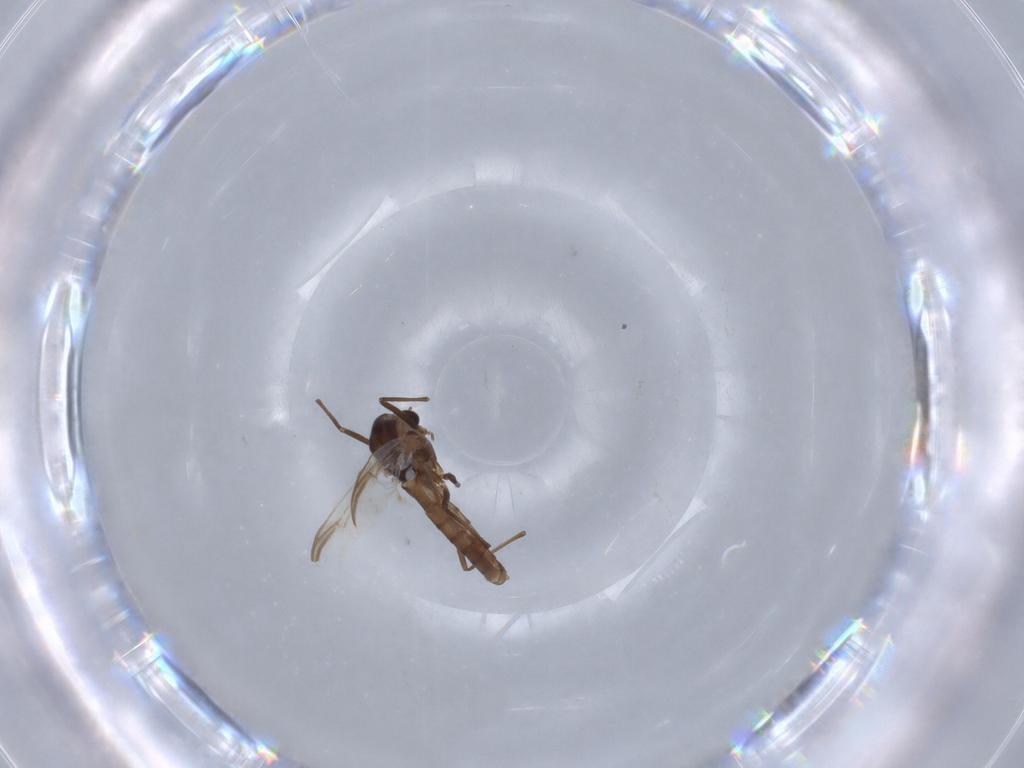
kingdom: Animalia
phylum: Arthropoda
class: Insecta
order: Diptera
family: Chironomidae
